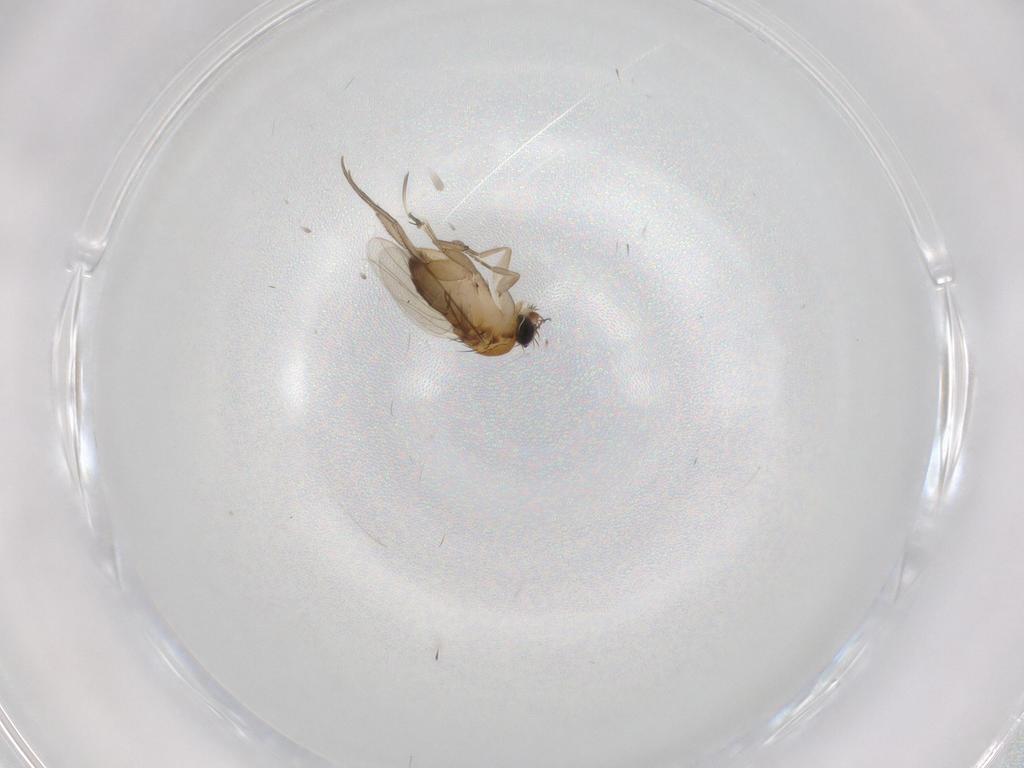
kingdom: Animalia
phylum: Arthropoda
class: Insecta
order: Diptera
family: Phoridae
